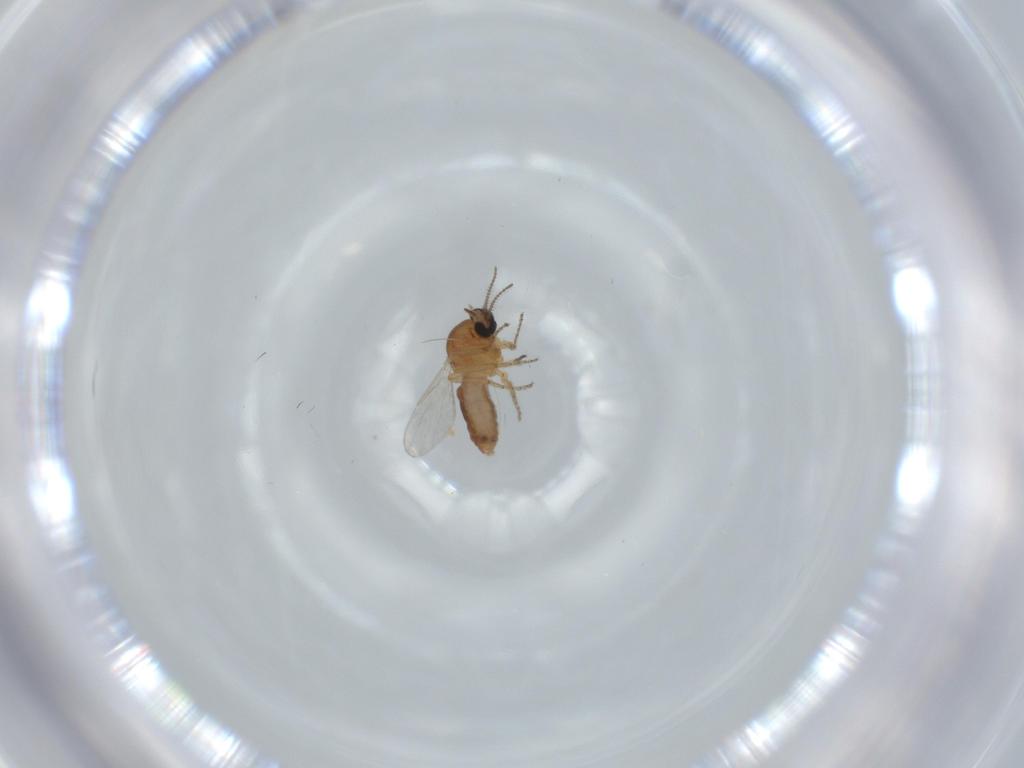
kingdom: Animalia
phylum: Arthropoda
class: Insecta
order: Diptera
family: Ceratopogonidae
